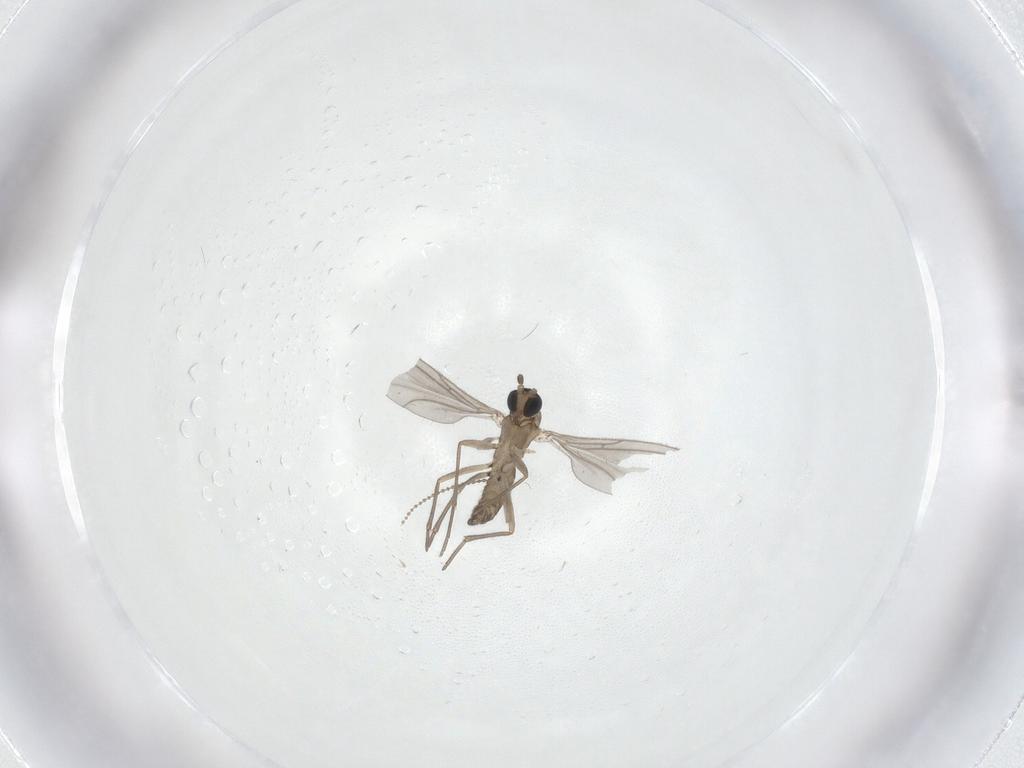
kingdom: Animalia
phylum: Arthropoda
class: Insecta
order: Diptera
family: Sciaridae
